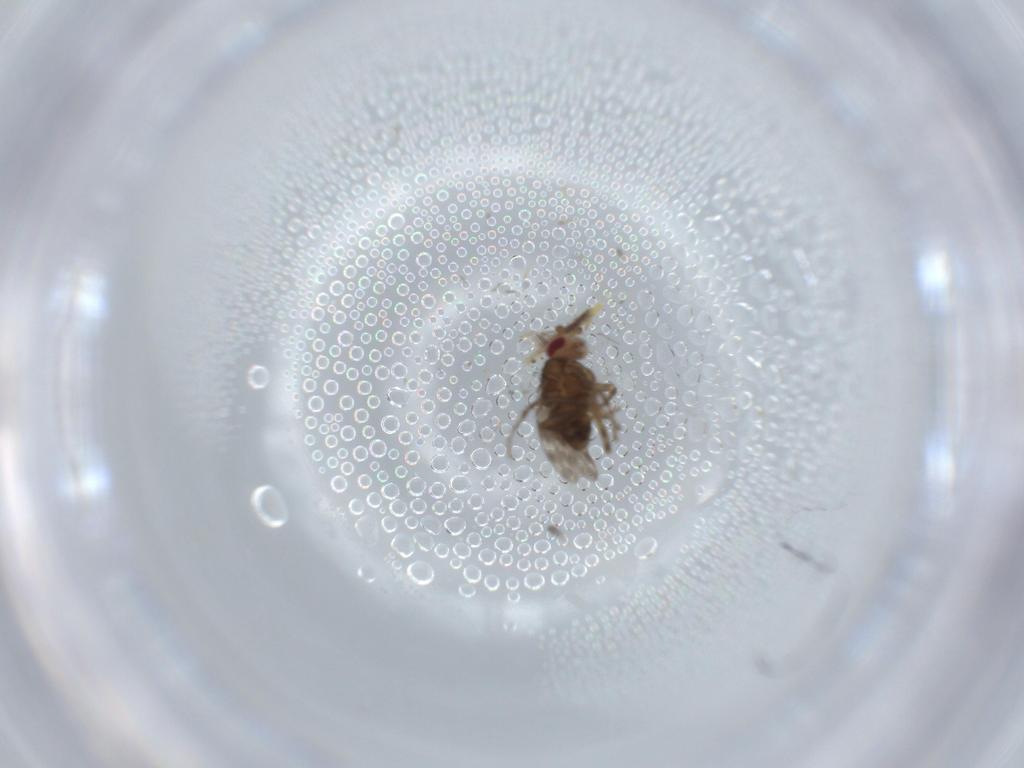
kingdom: Animalia
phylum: Arthropoda
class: Insecta
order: Diptera
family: Sphaeroceridae
